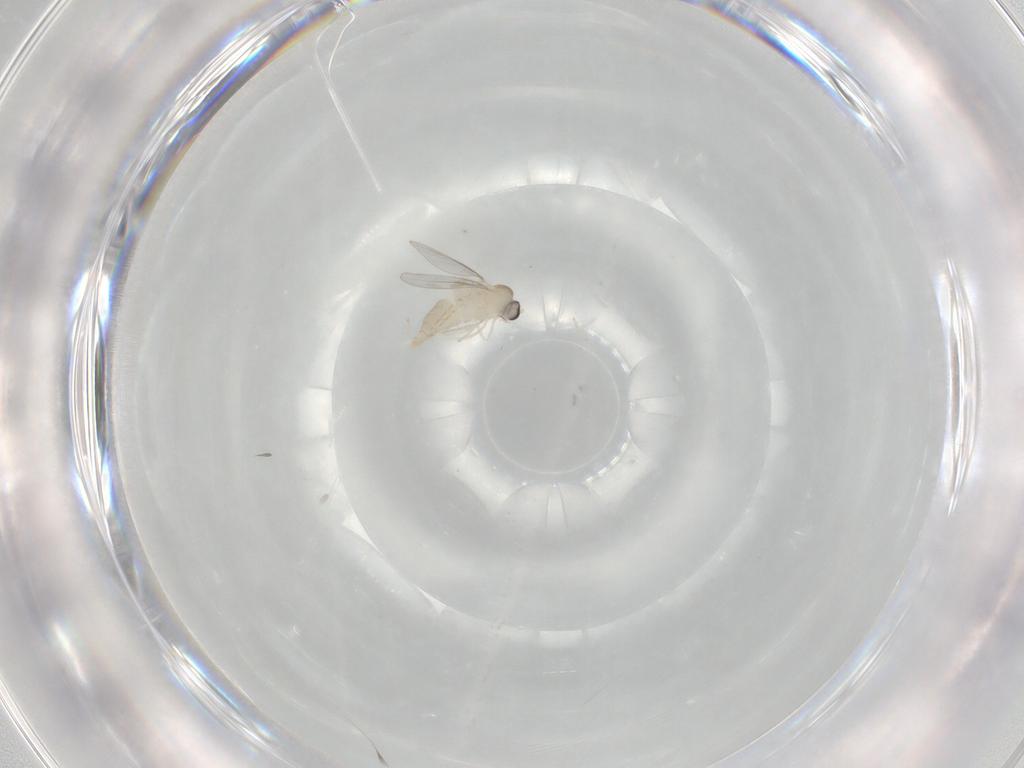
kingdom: Animalia
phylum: Arthropoda
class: Insecta
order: Diptera
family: Cecidomyiidae
